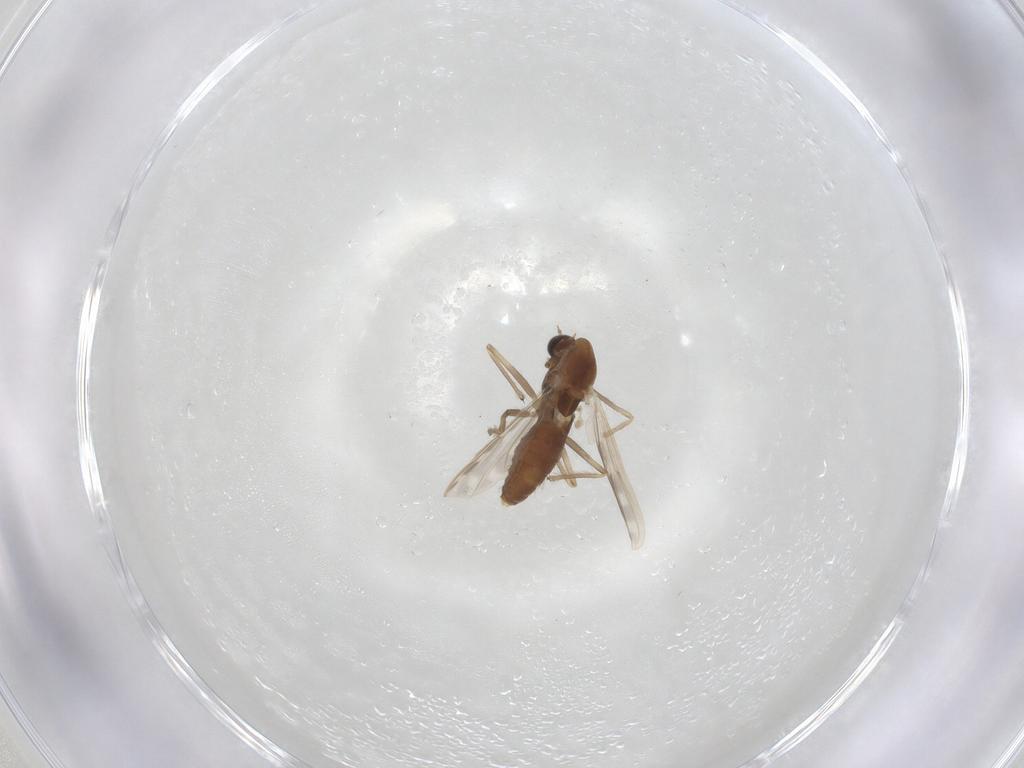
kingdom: Animalia
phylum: Arthropoda
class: Insecta
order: Diptera
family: Chironomidae
